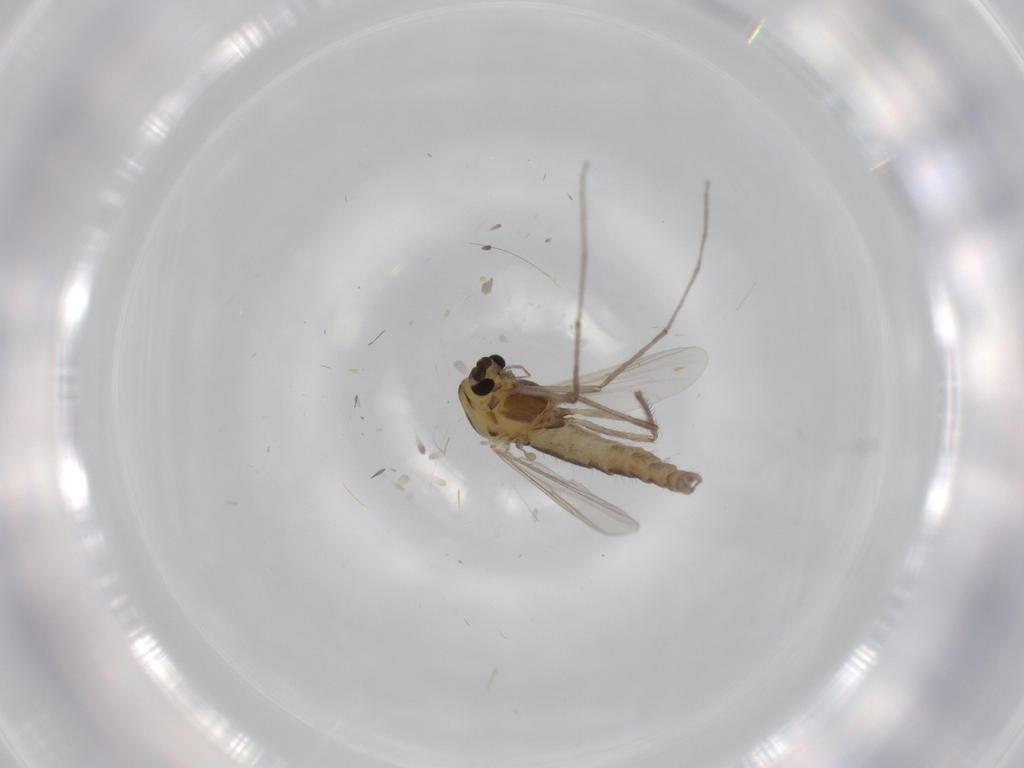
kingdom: Animalia
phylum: Arthropoda
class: Insecta
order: Diptera
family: Chironomidae
